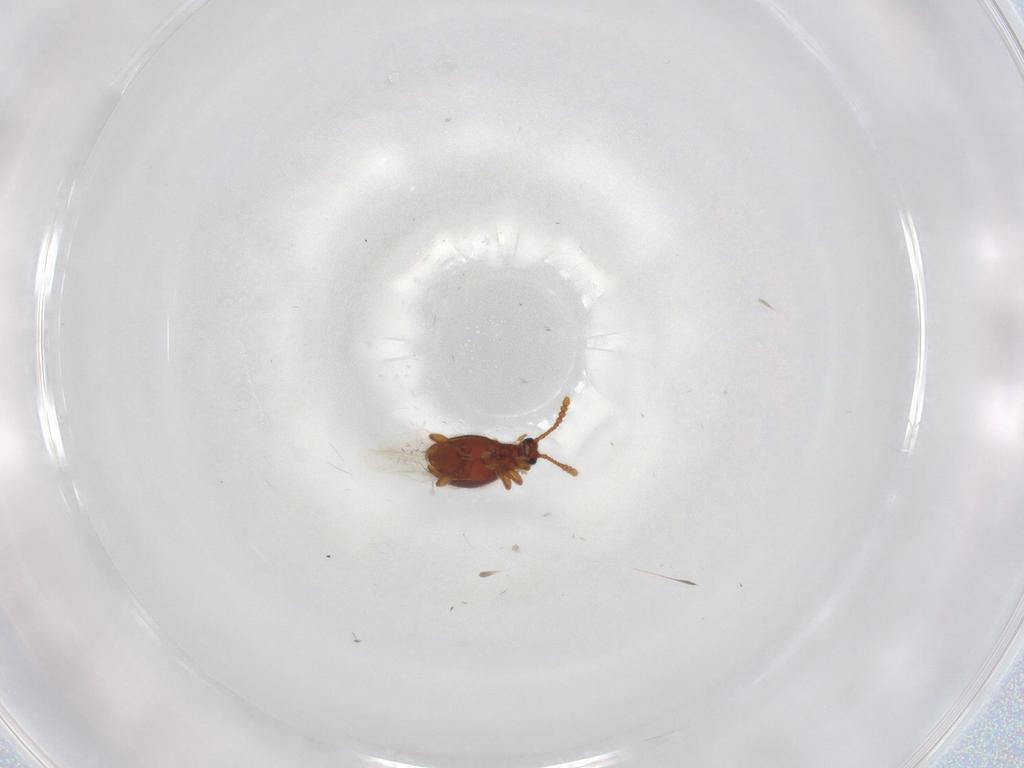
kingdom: Animalia
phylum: Arthropoda
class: Insecta
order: Coleoptera
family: Staphylinidae
